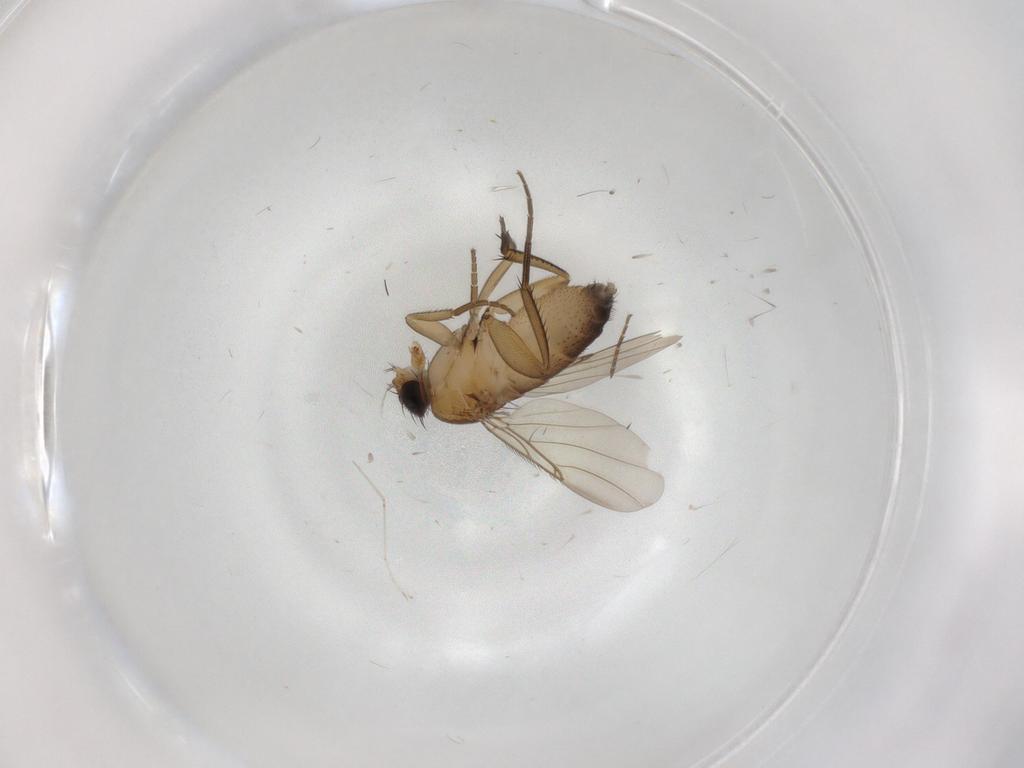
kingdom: Animalia
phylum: Arthropoda
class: Insecta
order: Diptera
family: Phoridae
